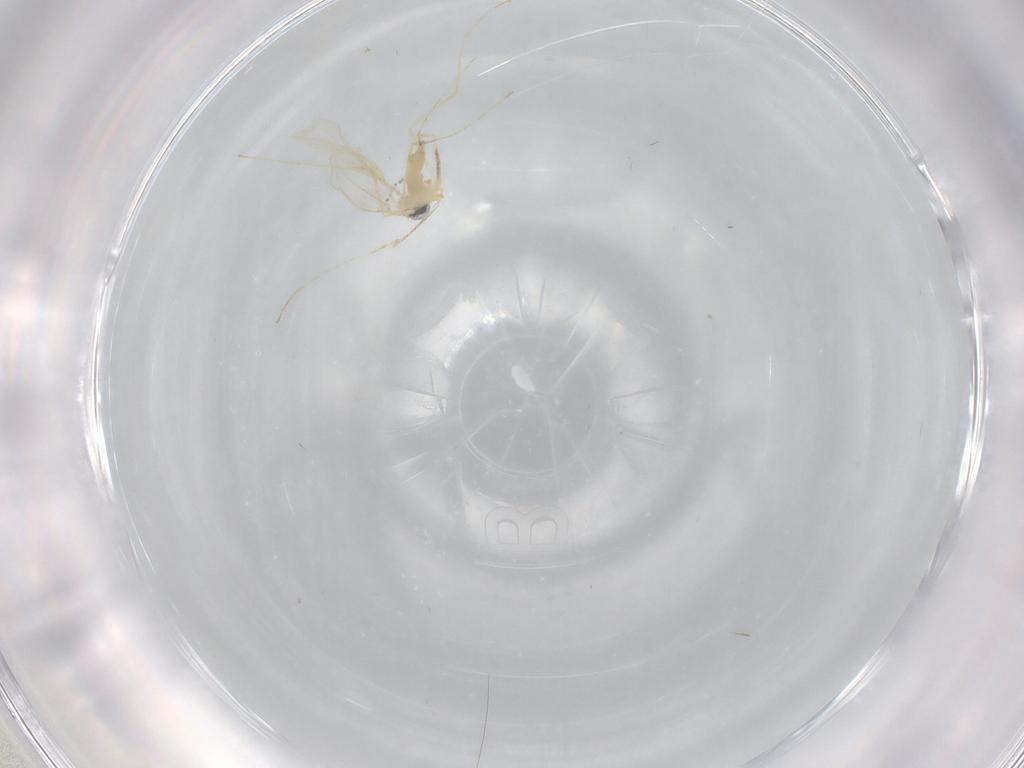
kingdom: Animalia
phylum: Arthropoda
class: Insecta
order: Diptera
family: Cecidomyiidae
